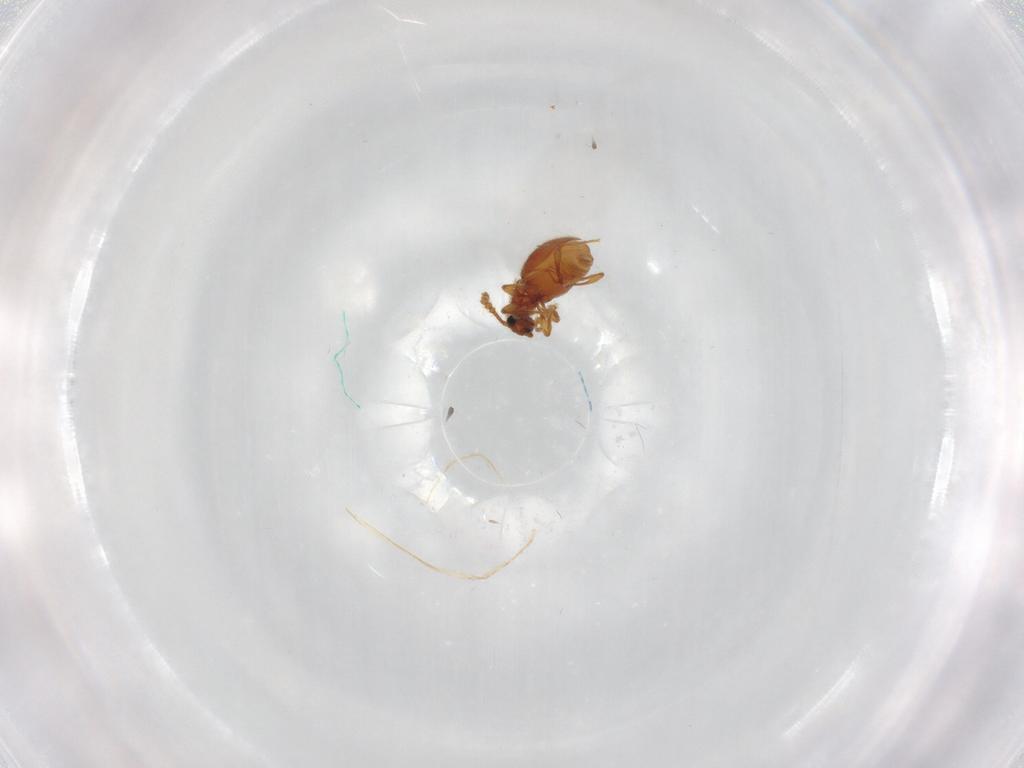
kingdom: Animalia
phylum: Arthropoda
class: Insecta
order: Coleoptera
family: Staphylinidae
